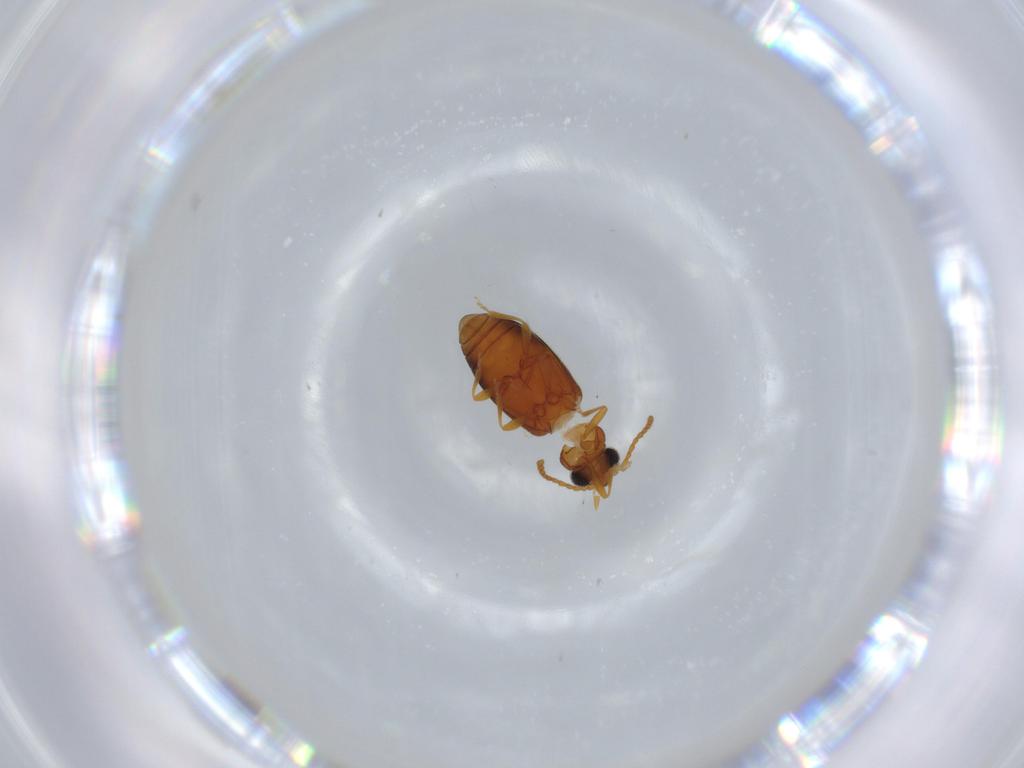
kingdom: Animalia
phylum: Arthropoda
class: Insecta
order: Coleoptera
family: Aderidae
